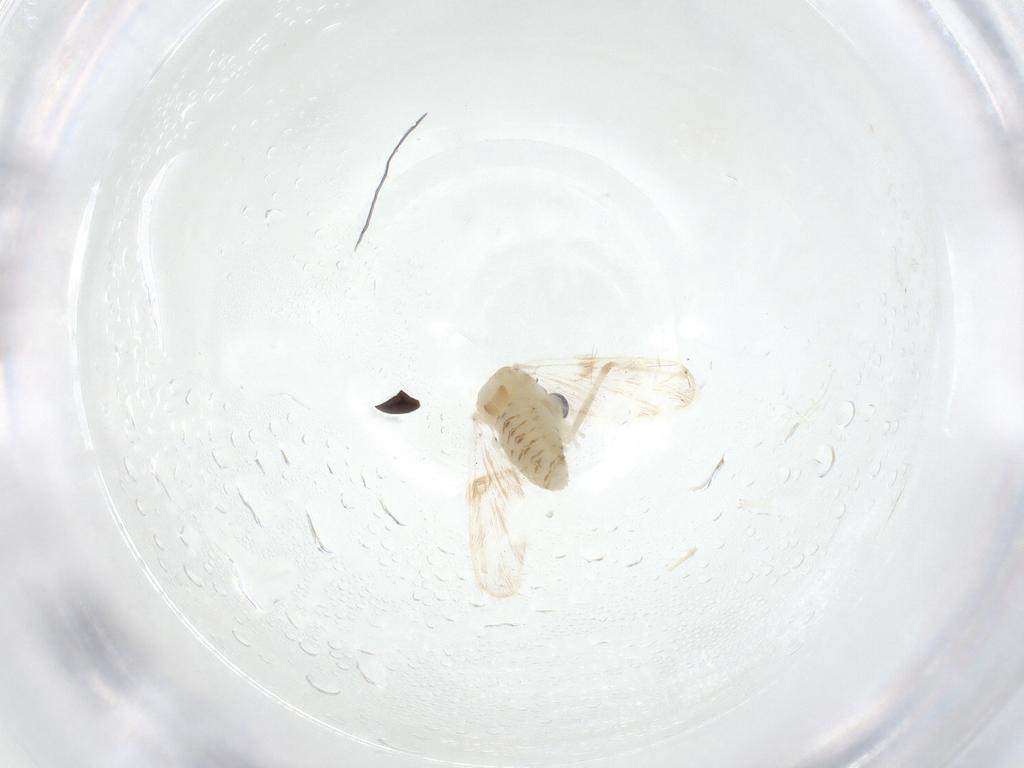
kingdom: Animalia
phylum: Arthropoda
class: Insecta
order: Diptera
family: Chironomidae
